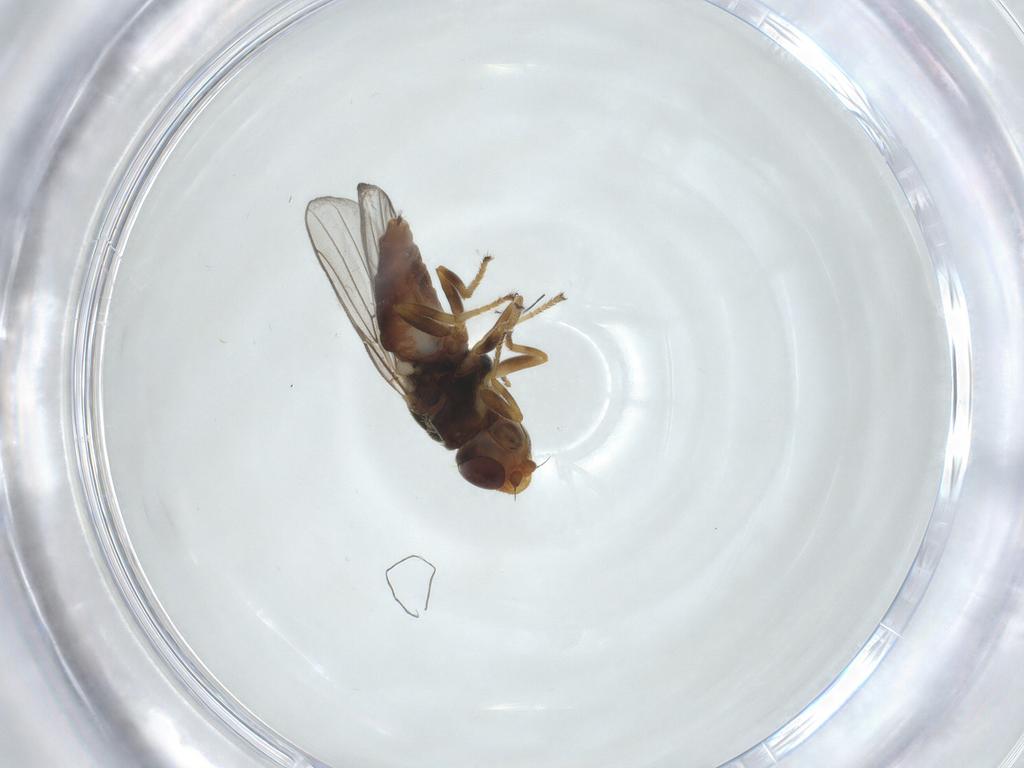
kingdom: Animalia
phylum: Arthropoda
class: Insecta
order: Diptera
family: Chloropidae
